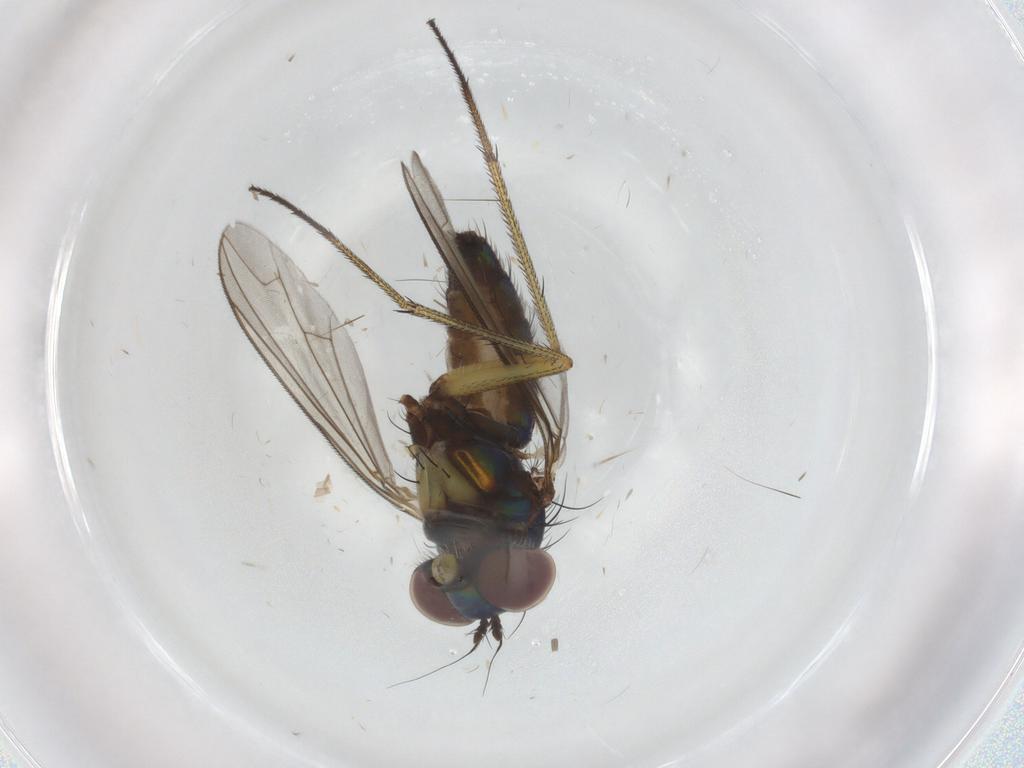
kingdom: Animalia
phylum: Arthropoda
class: Insecta
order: Diptera
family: Dolichopodidae
